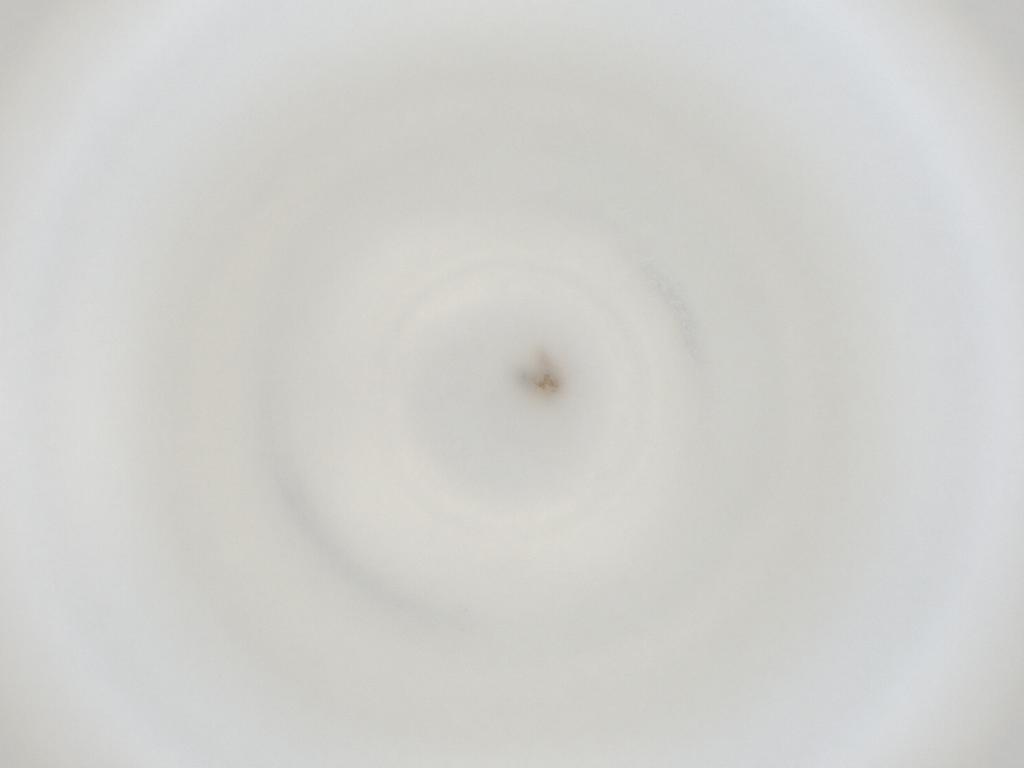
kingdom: Animalia
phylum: Arthropoda
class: Insecta
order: Diptera
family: Cecidomyiidae
